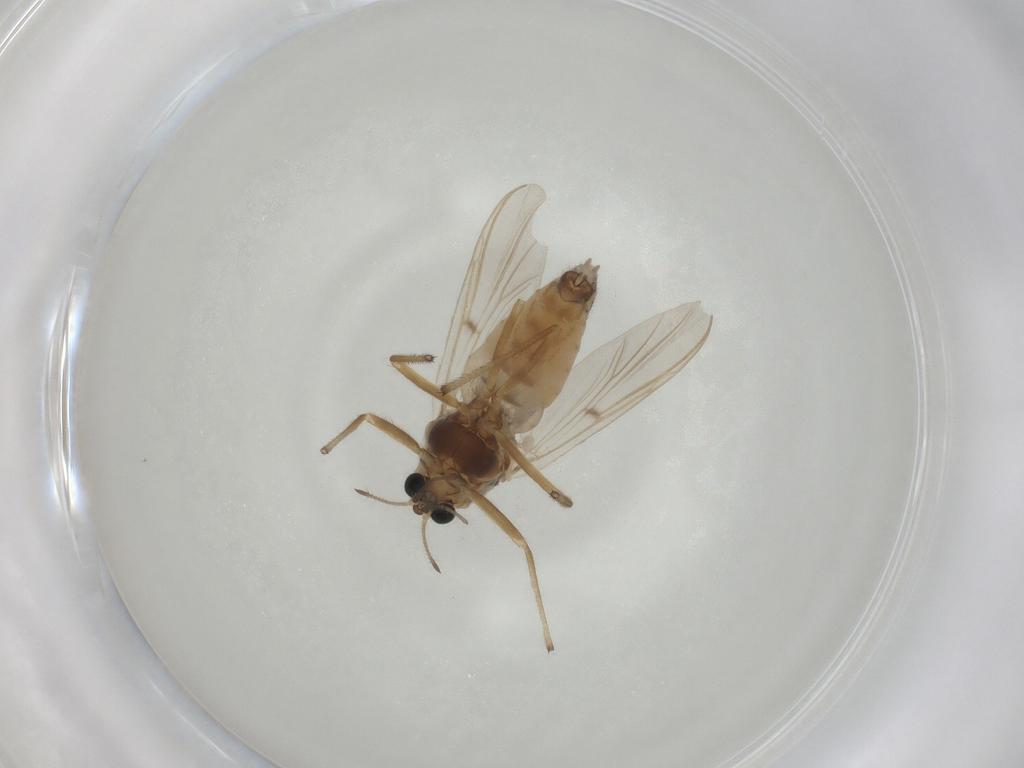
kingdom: Animalia
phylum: Arthropoda
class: Insecta
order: Diptera
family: Chironomidae
